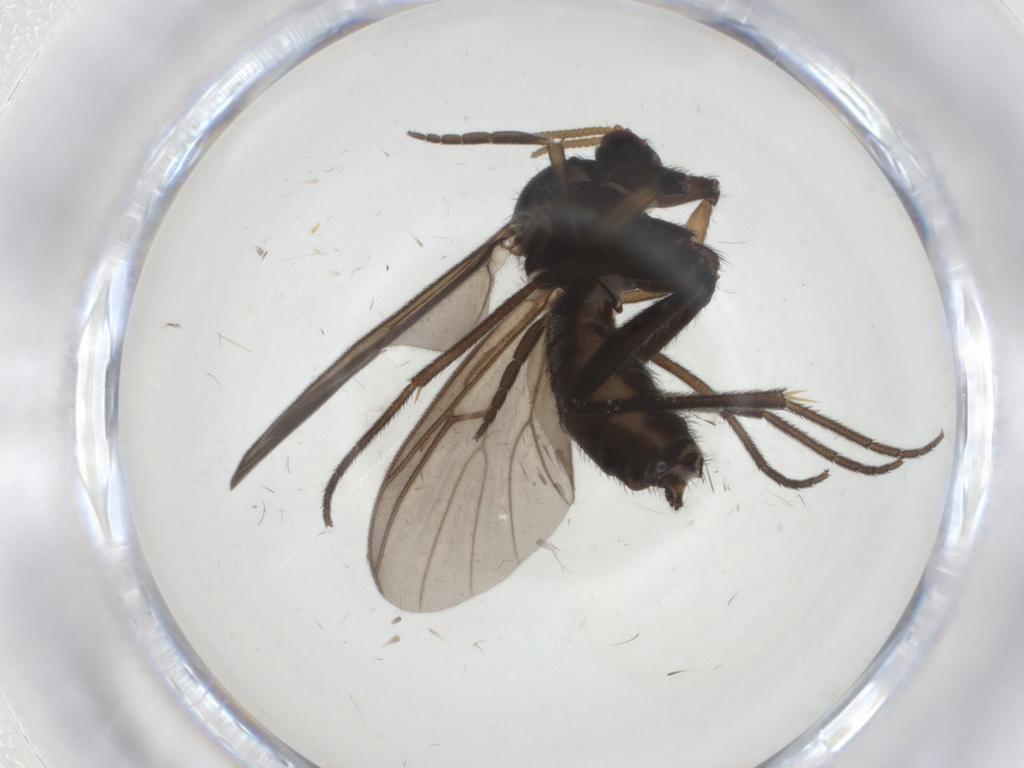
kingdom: Animalia
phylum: Arthropoda
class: Insecta
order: Diptera
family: Mycetophilidae
